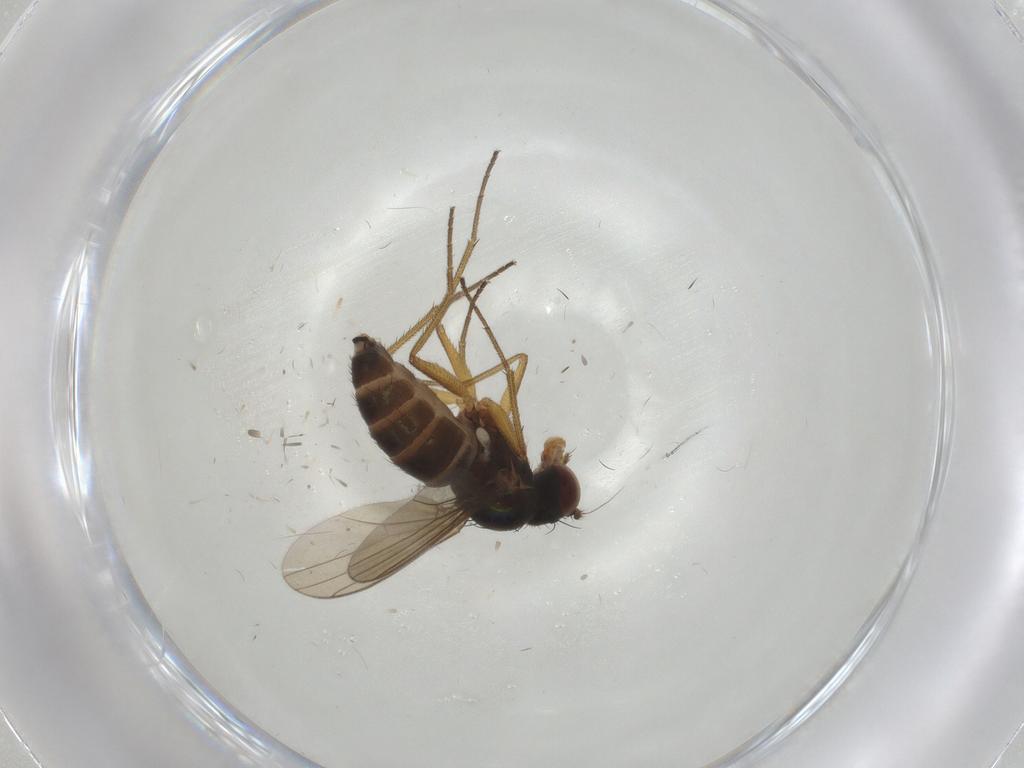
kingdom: Animalia
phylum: Arthropoda
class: Insecta
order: Diptera
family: Dolichopodidae
